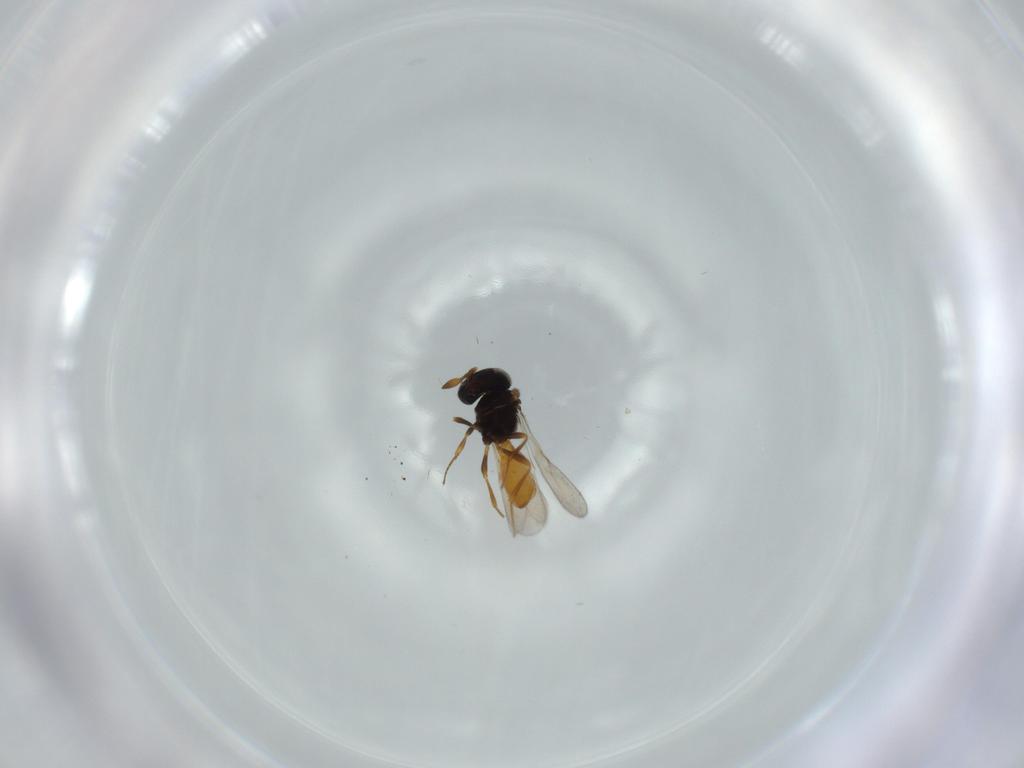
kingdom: Animalia
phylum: Arthropoda
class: Insecta
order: Hymenoptera
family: Scelionidae
